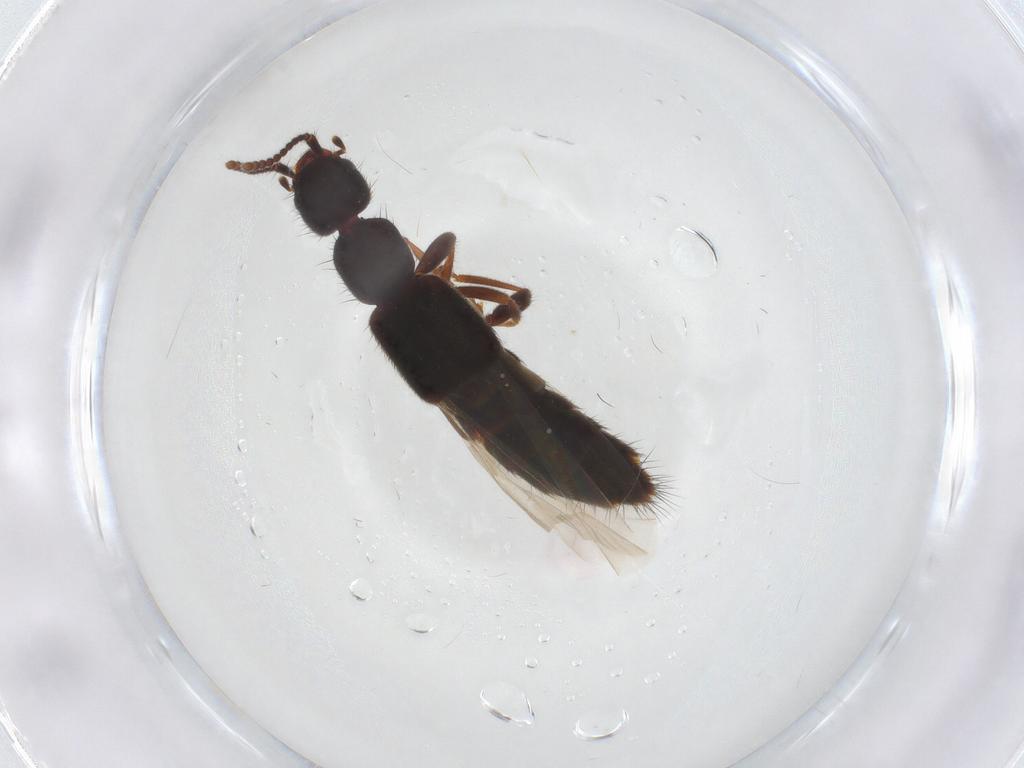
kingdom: Animalia
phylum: Arthropoda
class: Insecta
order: Coleoptera
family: Staphylinidae
